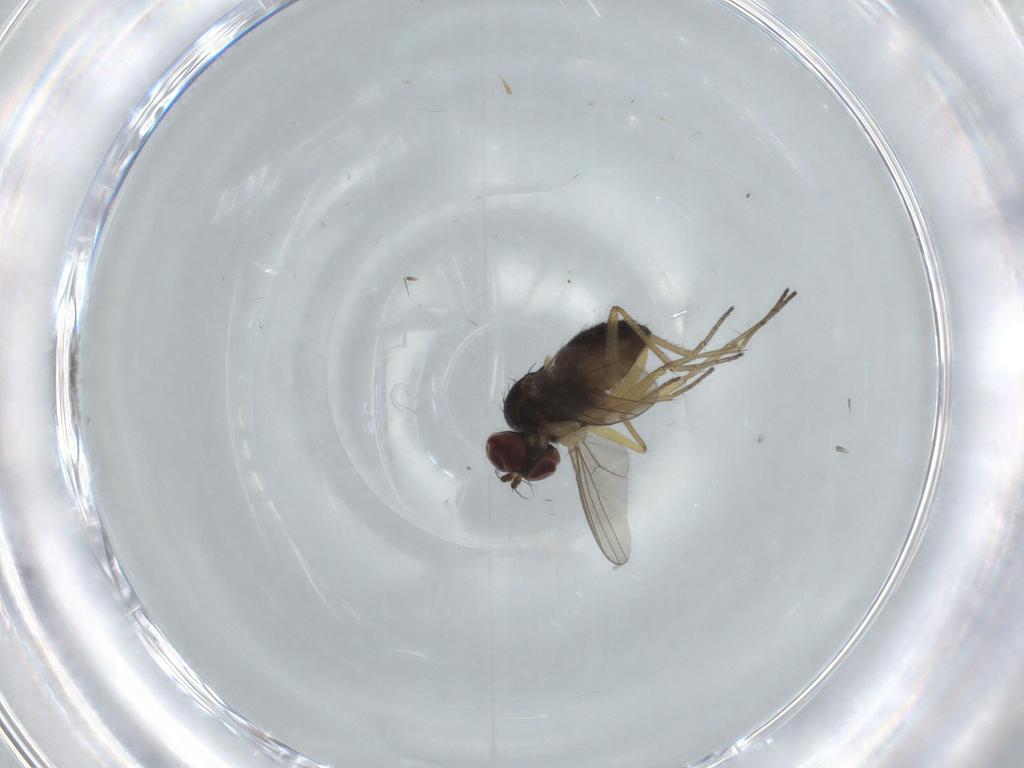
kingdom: Animalia
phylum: Arthropoda
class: Insecta
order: Diptera
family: Dolichopodidae
